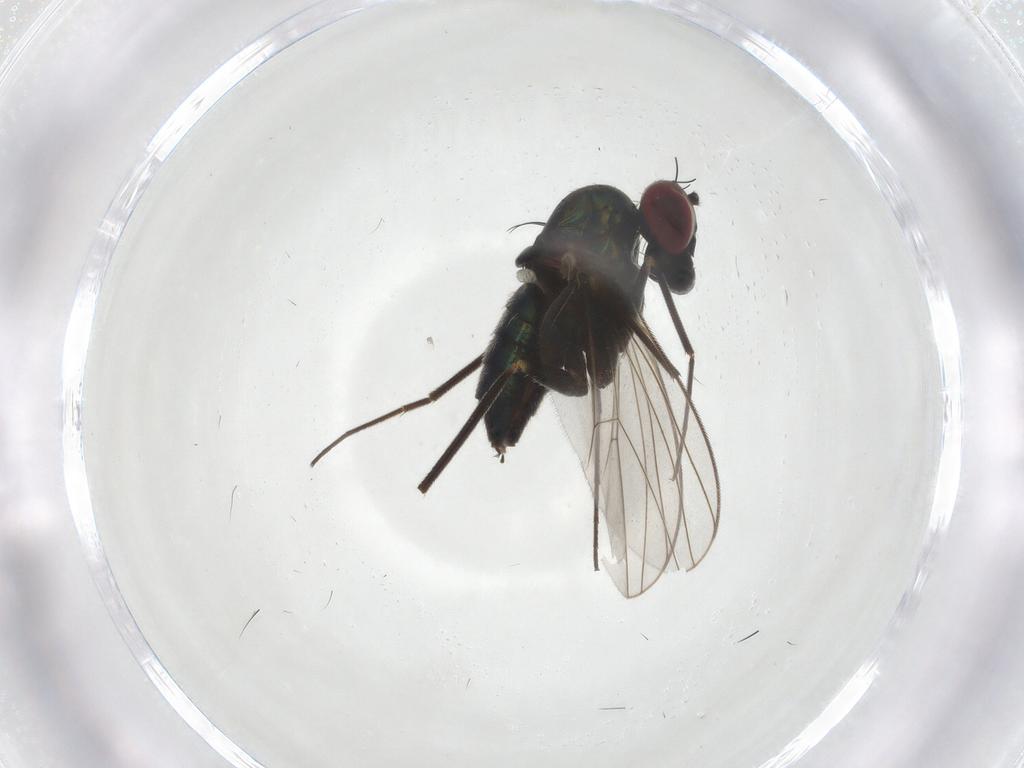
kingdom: Animalia
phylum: Arthropoda
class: Insecta
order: Diptera
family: Dolichopodidae
